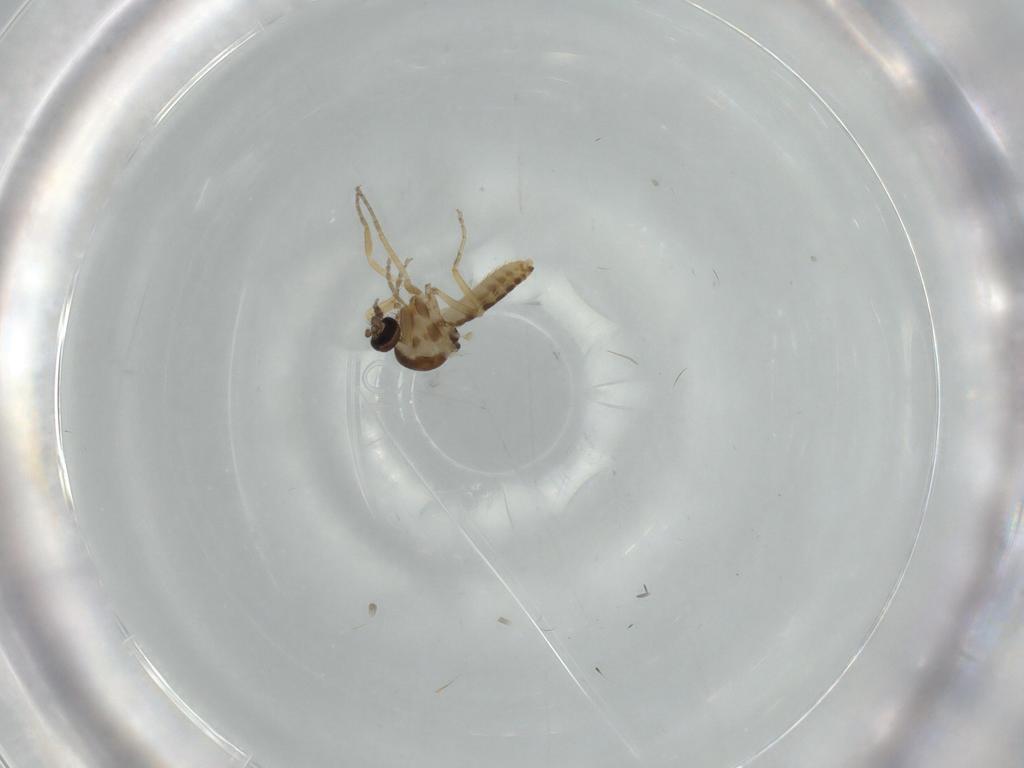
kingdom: Animalia
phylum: Arthropoda
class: Insecta
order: Diptera
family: Ceratopogonidae
